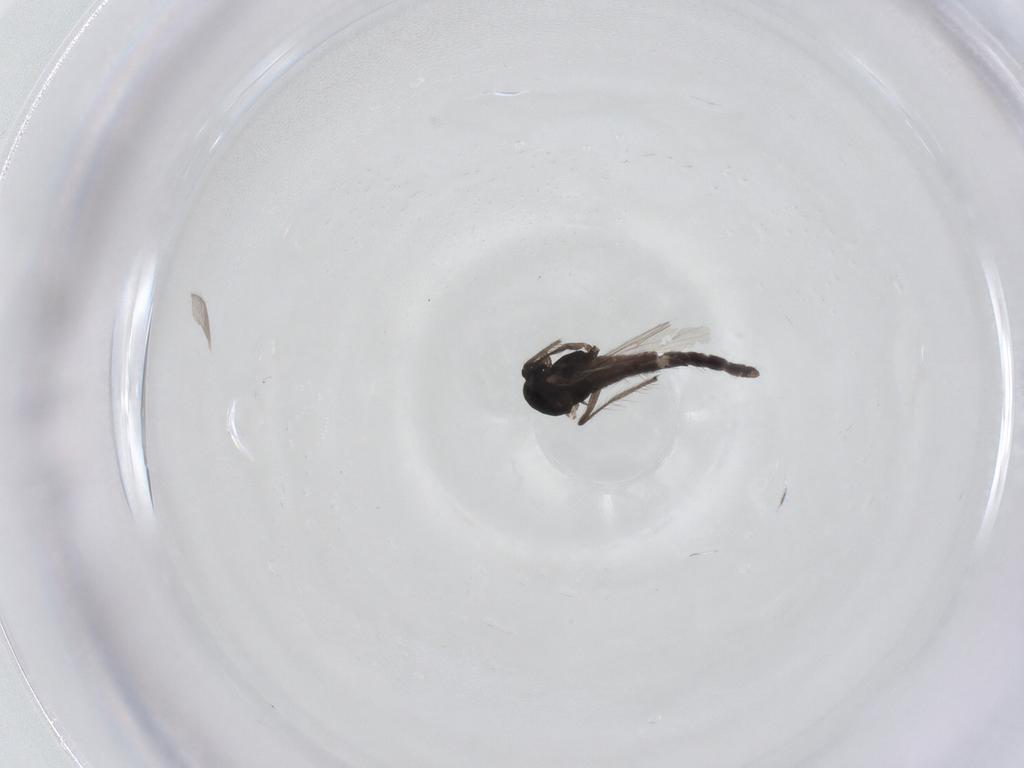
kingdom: Animalia
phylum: Arthropoda
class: Insecta
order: Diptera
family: Chironomidae
